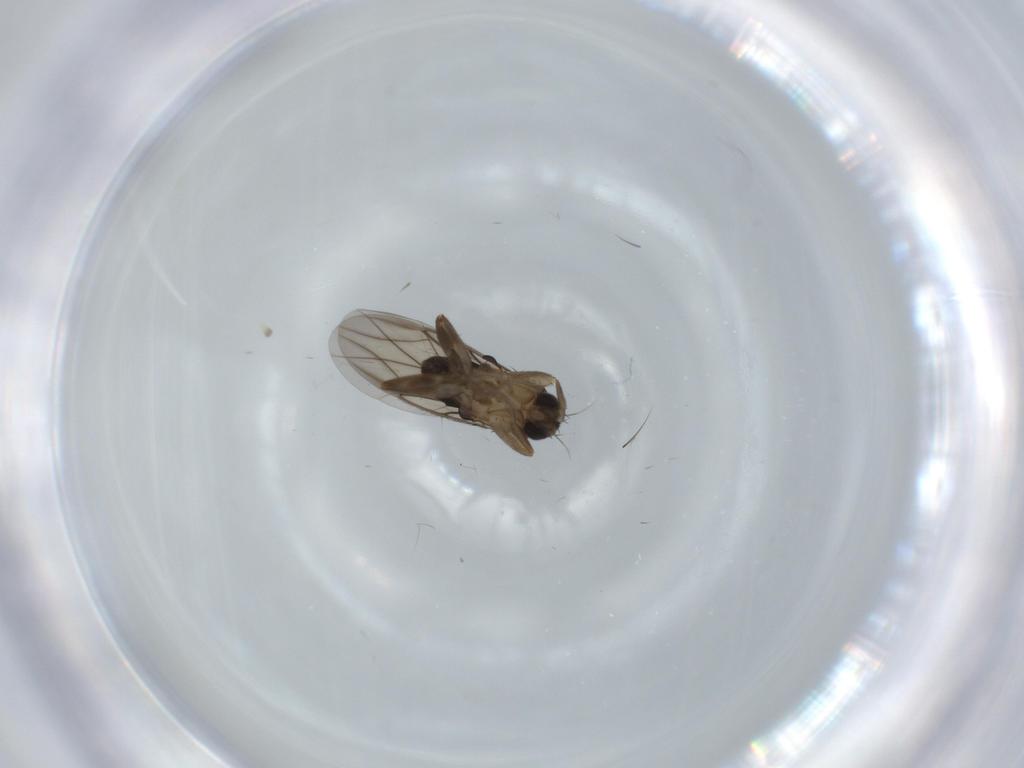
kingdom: Animalia
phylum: Arthropoda
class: Insecta
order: Diptera
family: Phoridae
